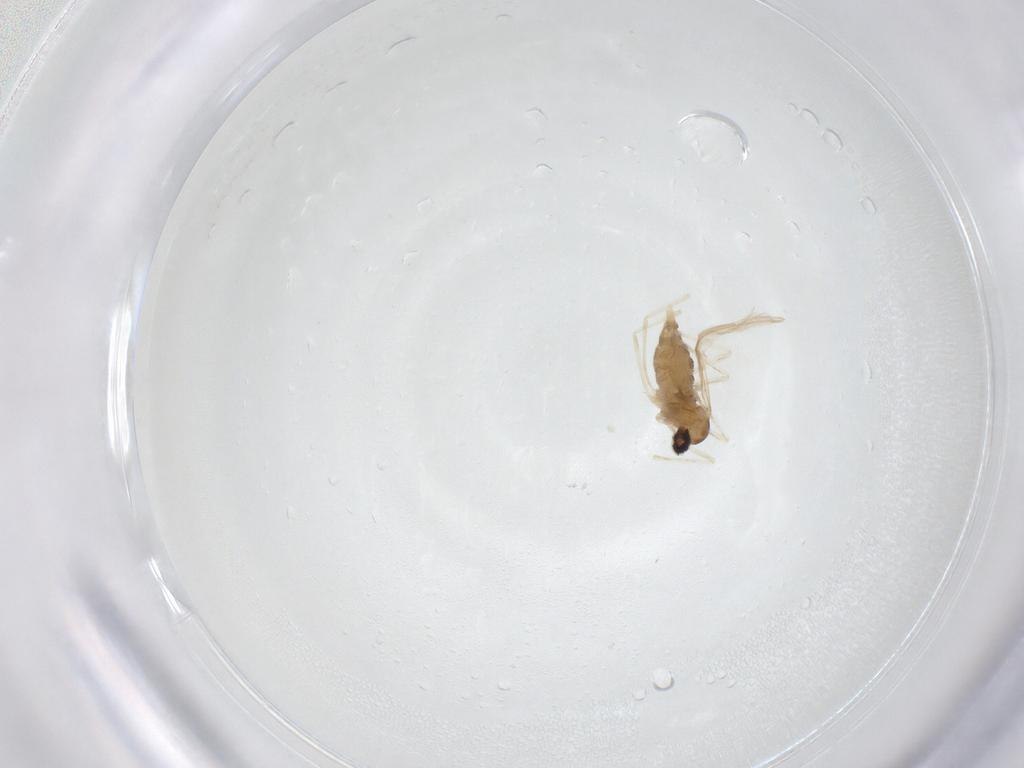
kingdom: Animalia
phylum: Arthropoda
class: Insecta
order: Diptera
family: Cecidomyiidae
